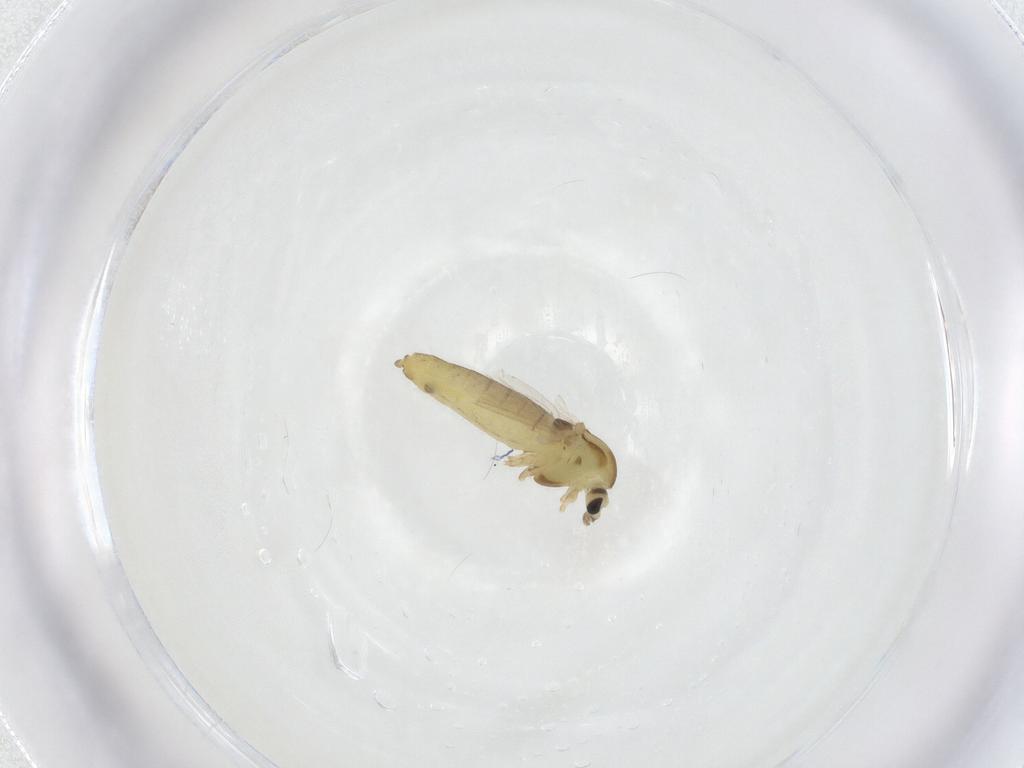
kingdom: Animalia
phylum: Arthropoda
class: Insecta
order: Diptera
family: Chironomidae
